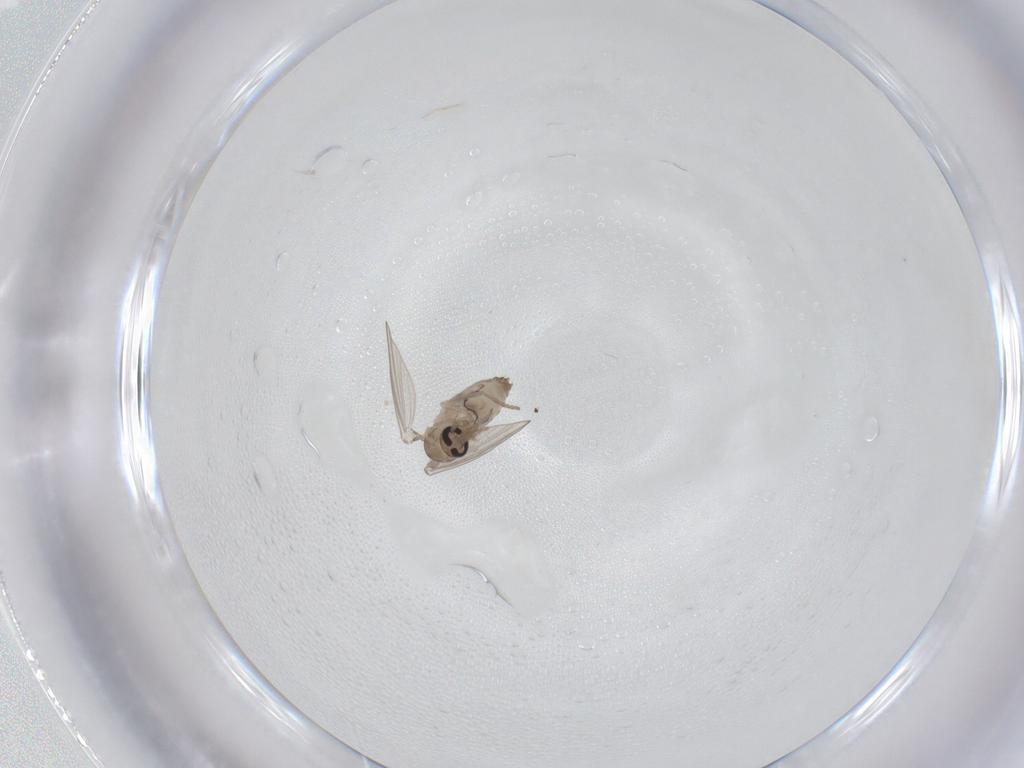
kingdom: Animalia
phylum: Arthropoda
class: Insecta
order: Diptera
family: Psychodidae
